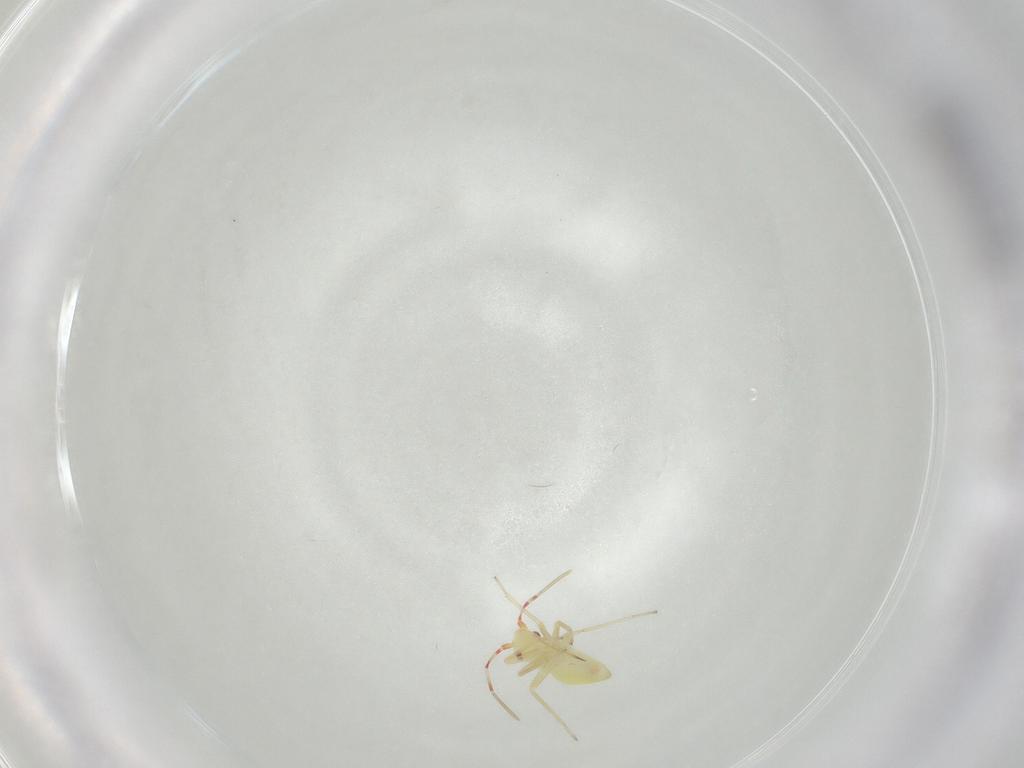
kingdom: Animalia
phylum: Arthropoda
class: Insecta
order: Hemiptera
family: Miridae
